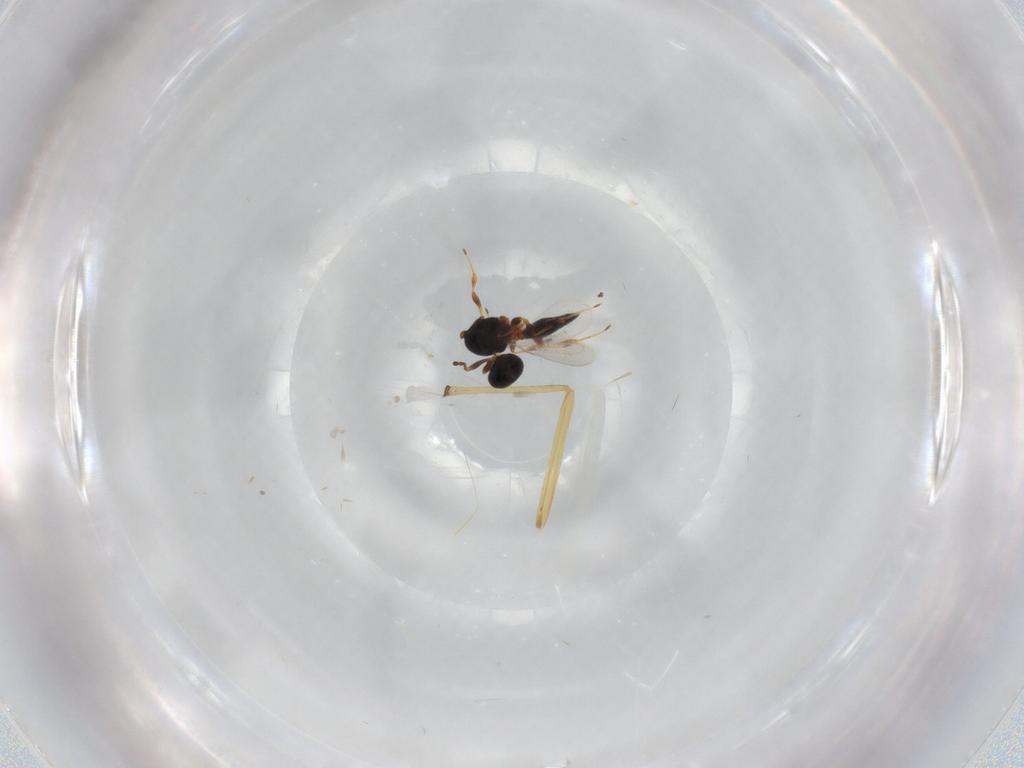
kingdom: Animalia
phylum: Arthropoda
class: Insecta
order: Hymenoptera
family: Platygastridae
